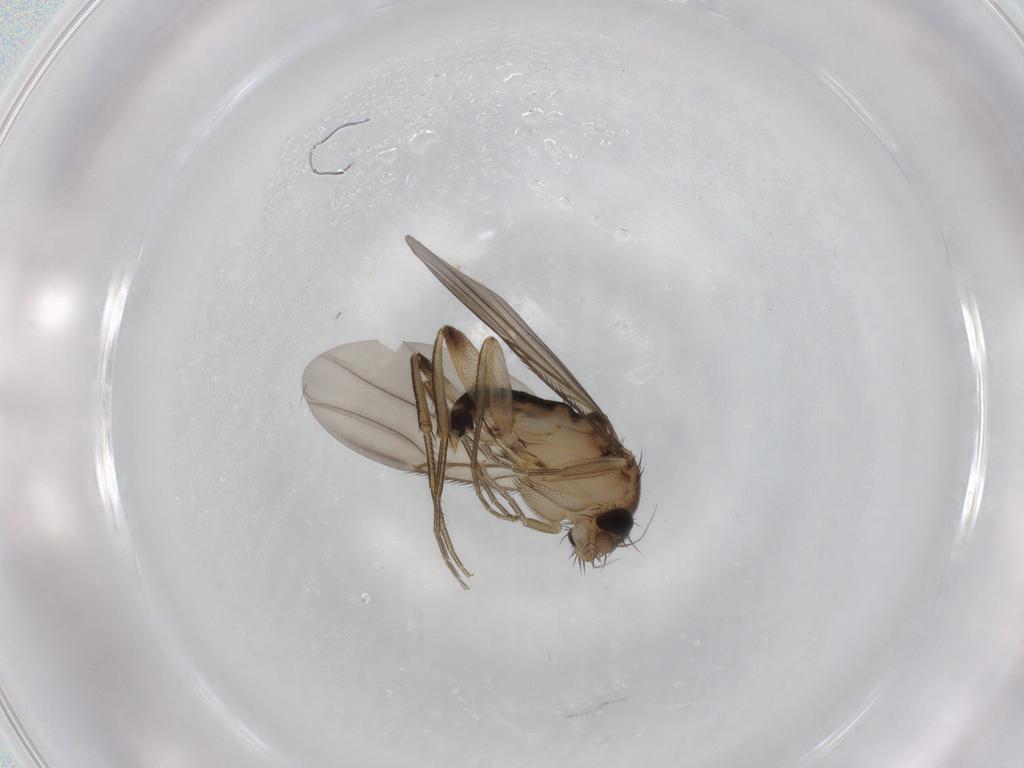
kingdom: Animalia
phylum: Arthropoda
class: Insecta
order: Diptera
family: Phoridae
